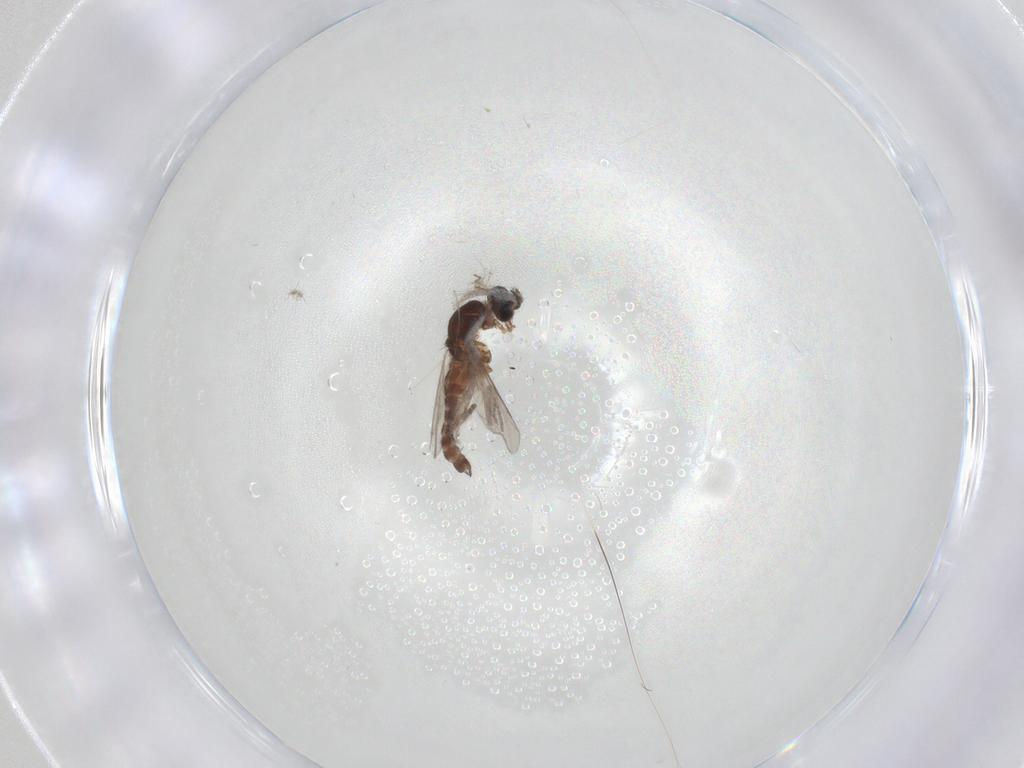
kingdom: Animalia
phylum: Arthropoda
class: Insecta
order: Diptera
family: Ceratopogonidae
